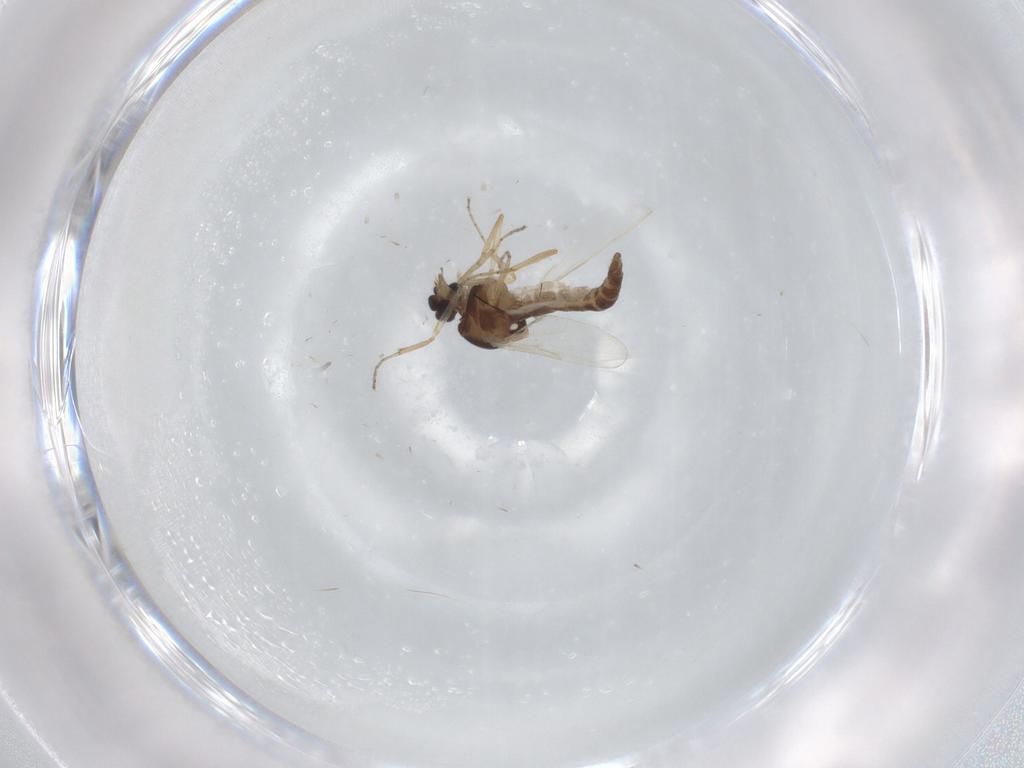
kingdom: Animalia
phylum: Arthropoda
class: Insecta
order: Diptera
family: Ceratopogonidae
